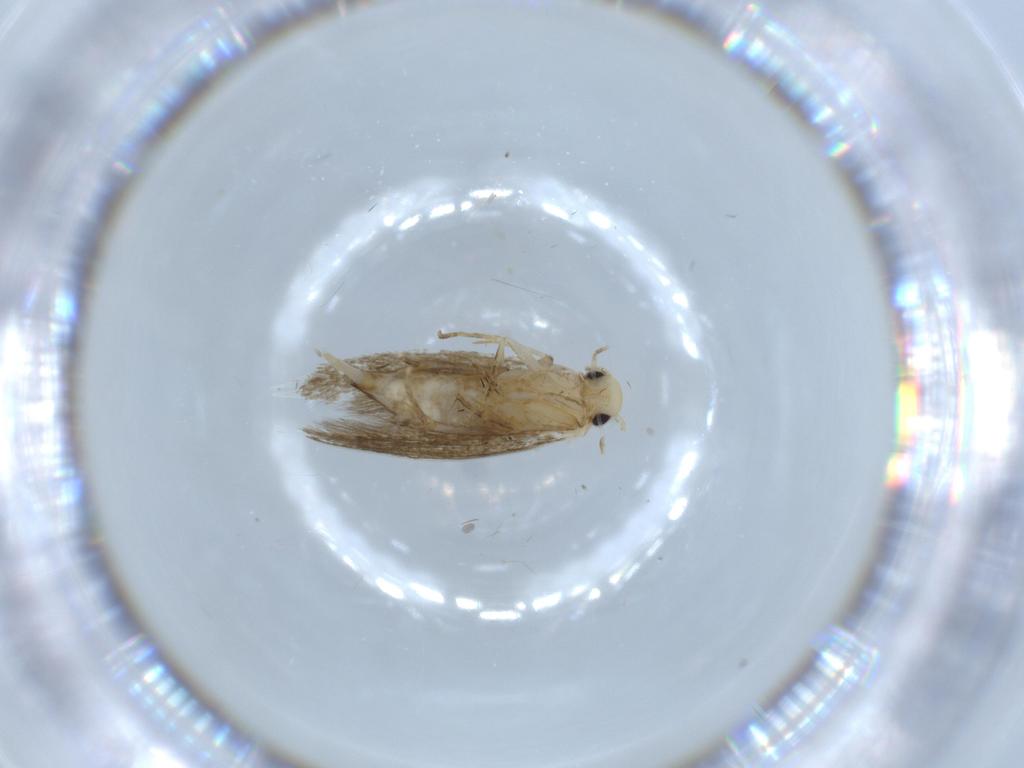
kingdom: Animalia
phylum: Arthropoda
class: Insecta
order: Lepidoptera
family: Tineidae
